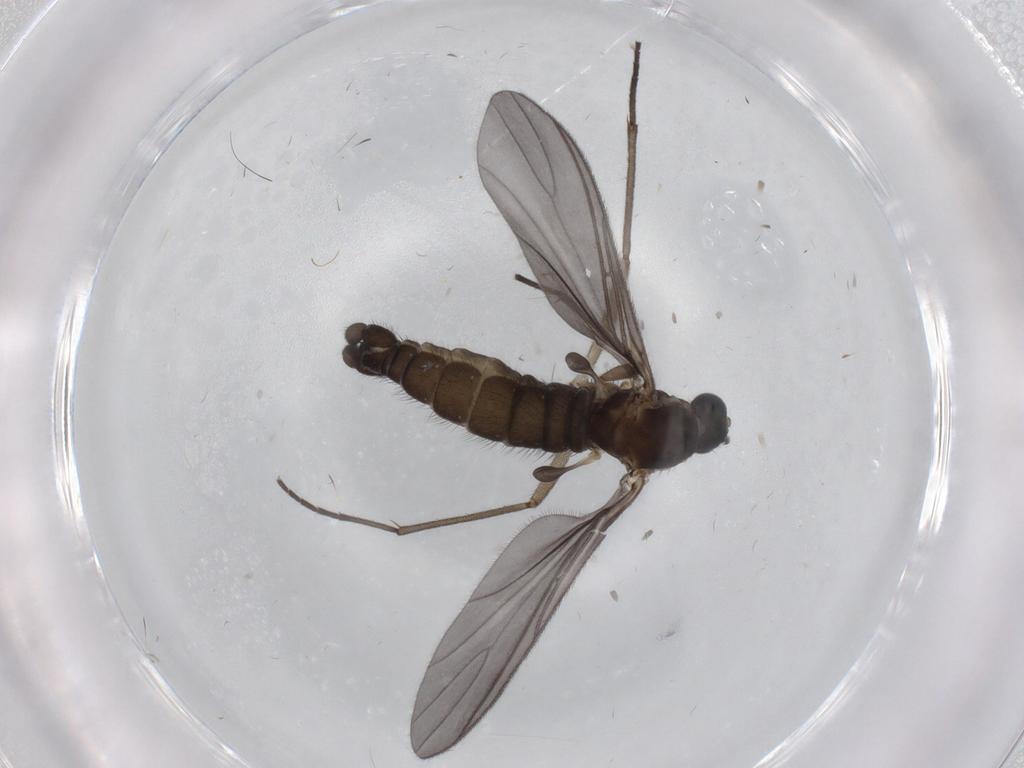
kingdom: Animalia
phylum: Arthropoda
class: Insecta
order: Diptera
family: Sciaridae
